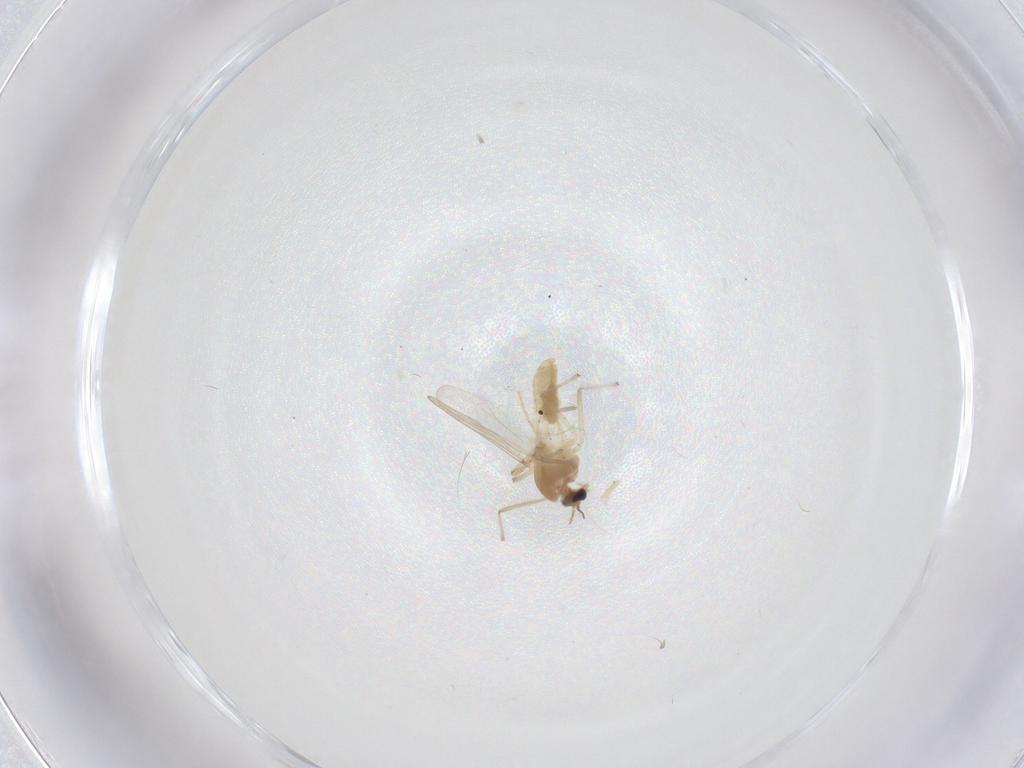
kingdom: Animalia
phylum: Arthropoda
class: Insecta
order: Diptera
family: Chironomidae
